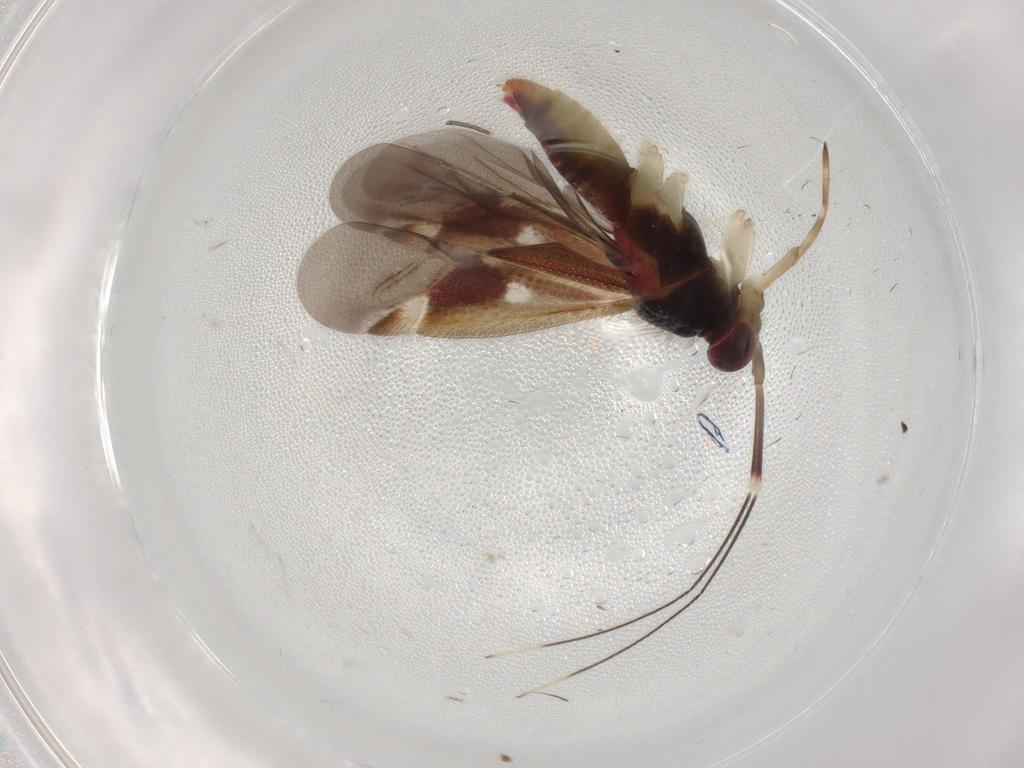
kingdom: Animalia
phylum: Arthropoda
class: Insecta
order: Hemiptera
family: Miridae
